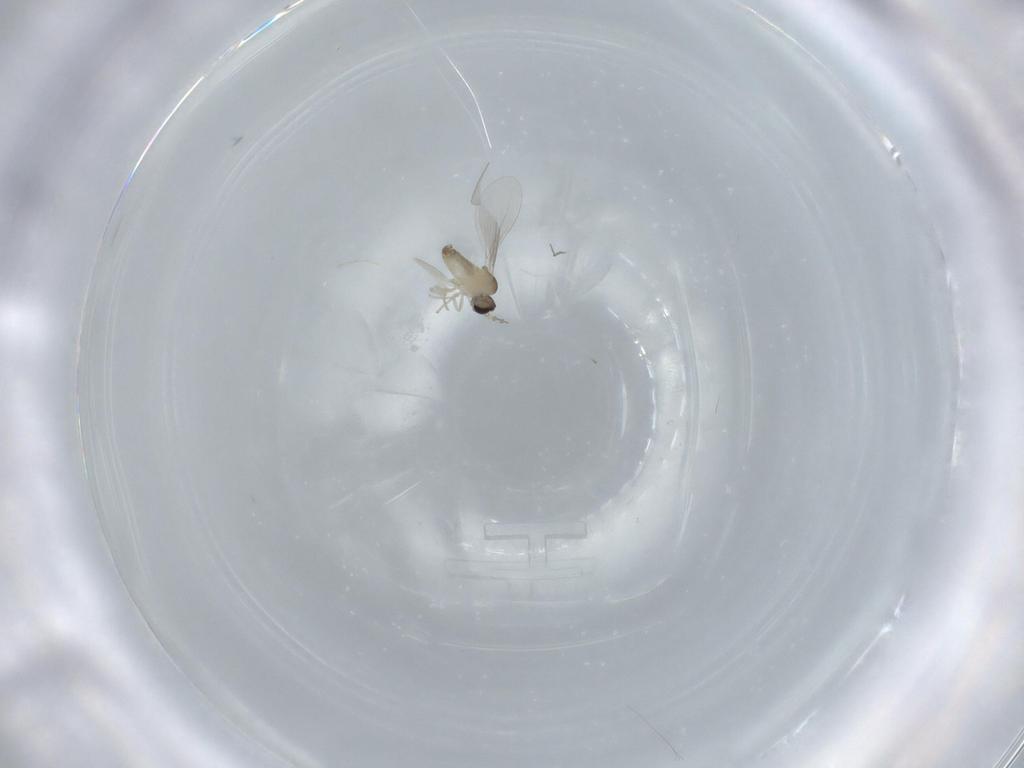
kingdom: Animalia
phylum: Arthropoda
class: Insecta
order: Diptera
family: Cecidomyiidae
